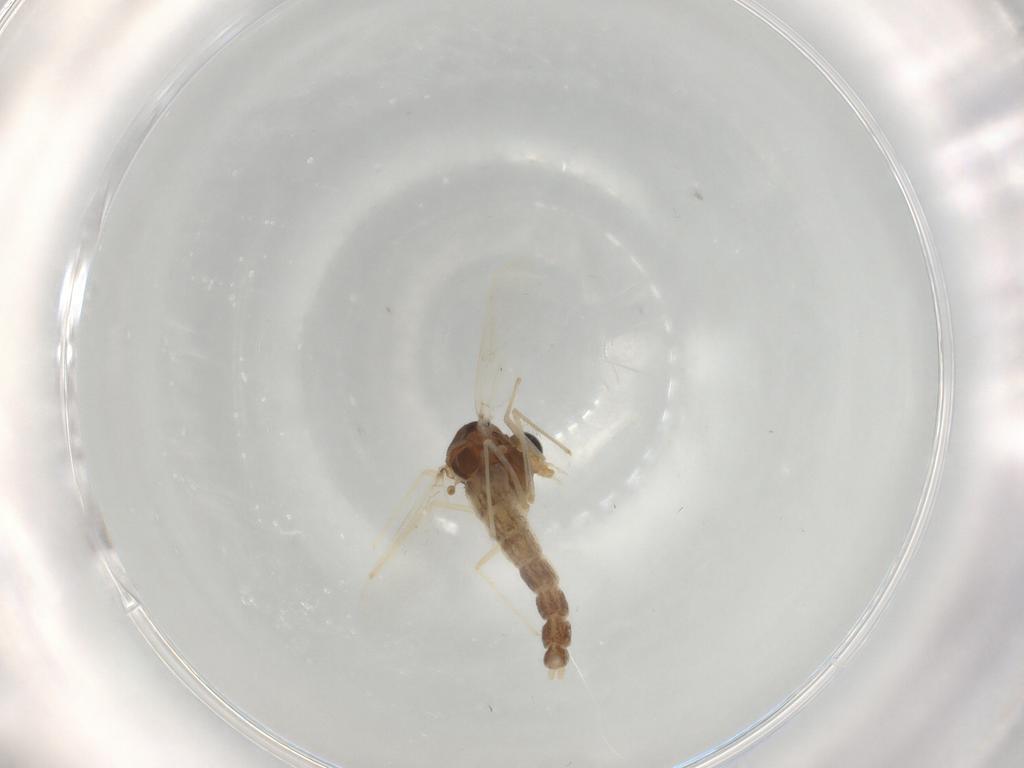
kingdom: Animalia
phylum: Arthropoda
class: Insecta
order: Diptera
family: Chironomidae
